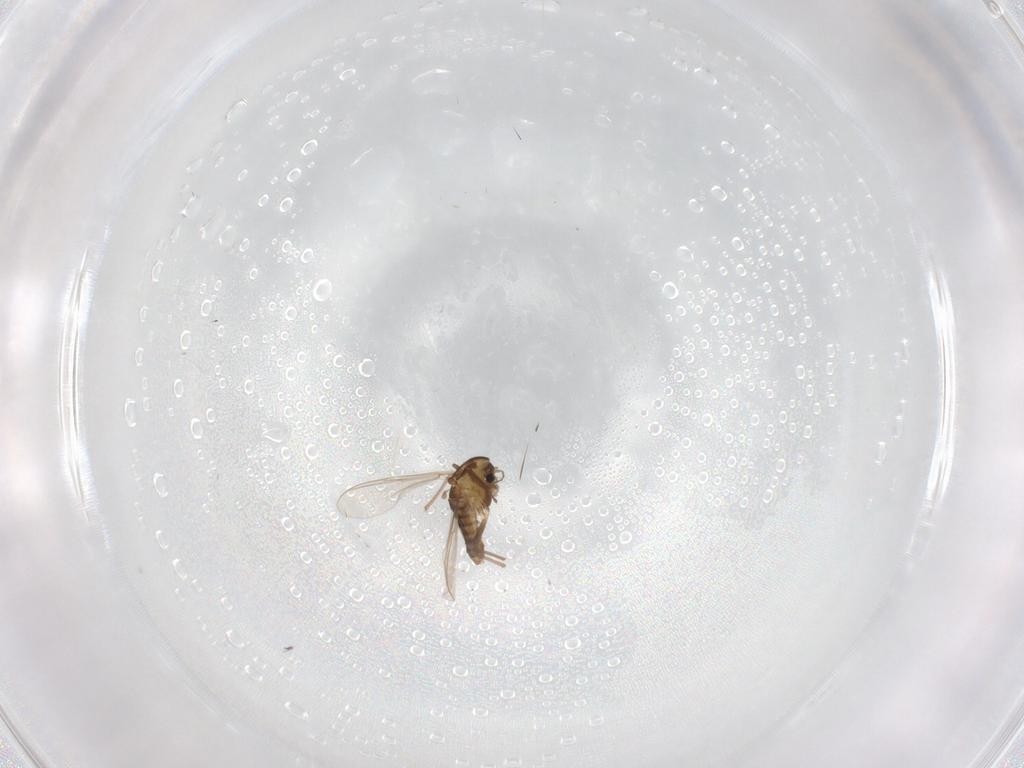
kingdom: Animalia
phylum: Arthropoda
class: Insecta
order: Diptera
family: Chironomidae
